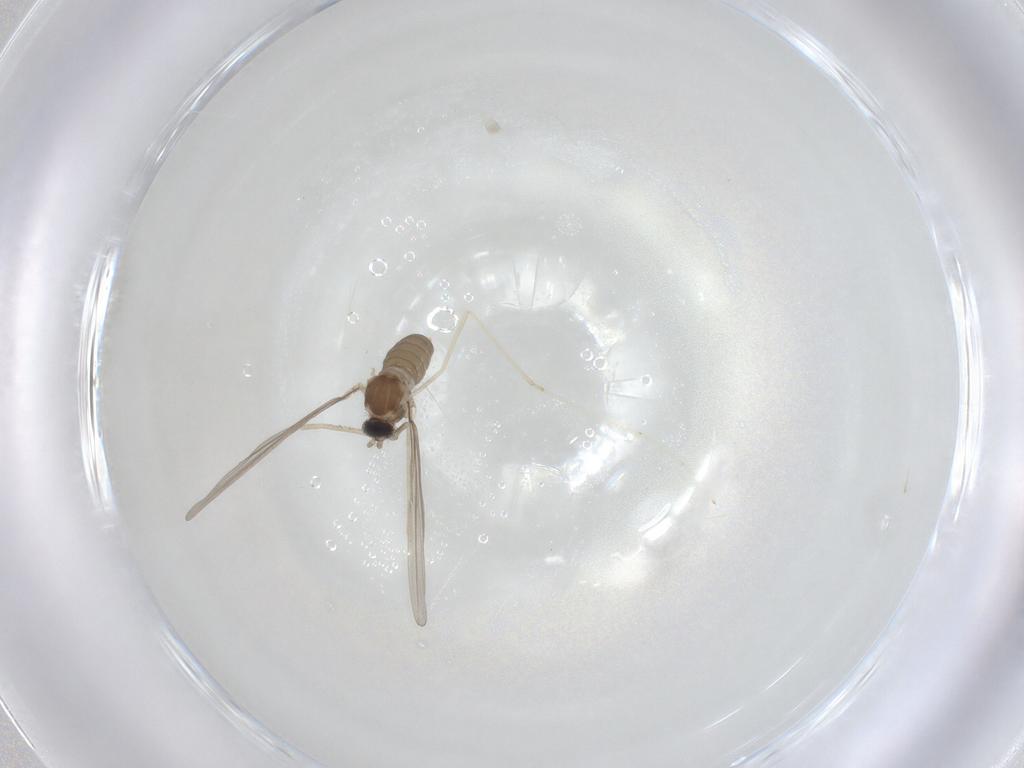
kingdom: Animalia
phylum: Arthropoda
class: Insecta
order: Diptera
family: Cecidomyiidae
